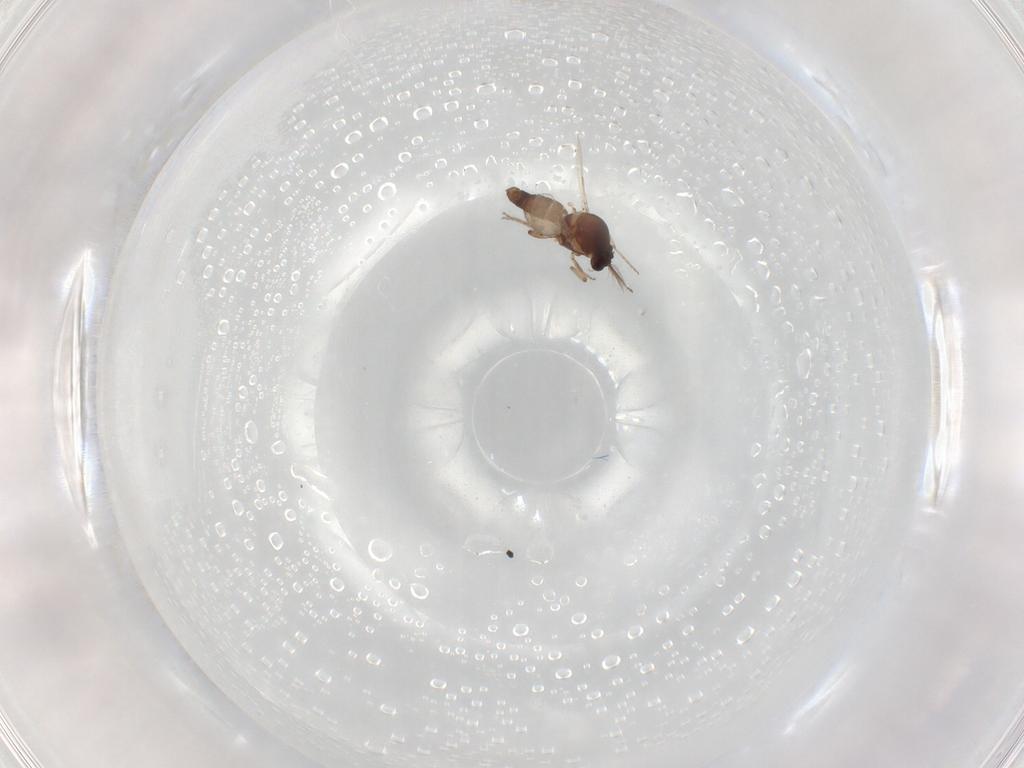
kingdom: Animalia
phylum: Arthropoda
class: Insecta
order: Diptera
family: Ceratopogonidae
